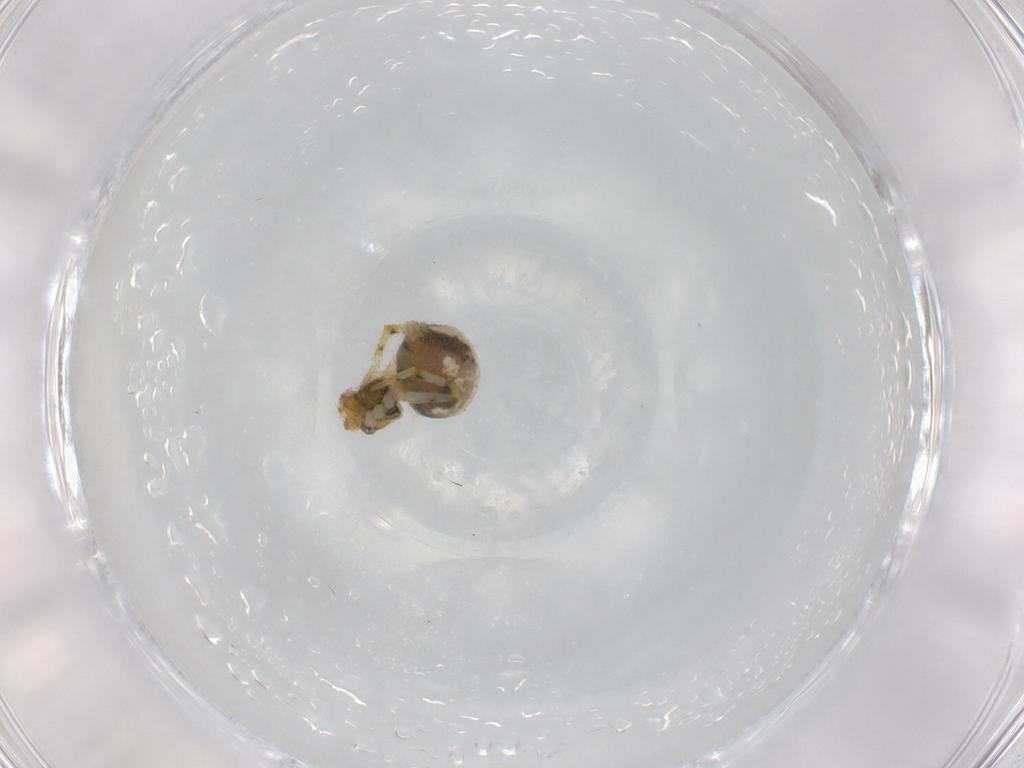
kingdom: Animalia
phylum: Arthropoda
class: Arachnida
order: Araneae
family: Theridiidae
